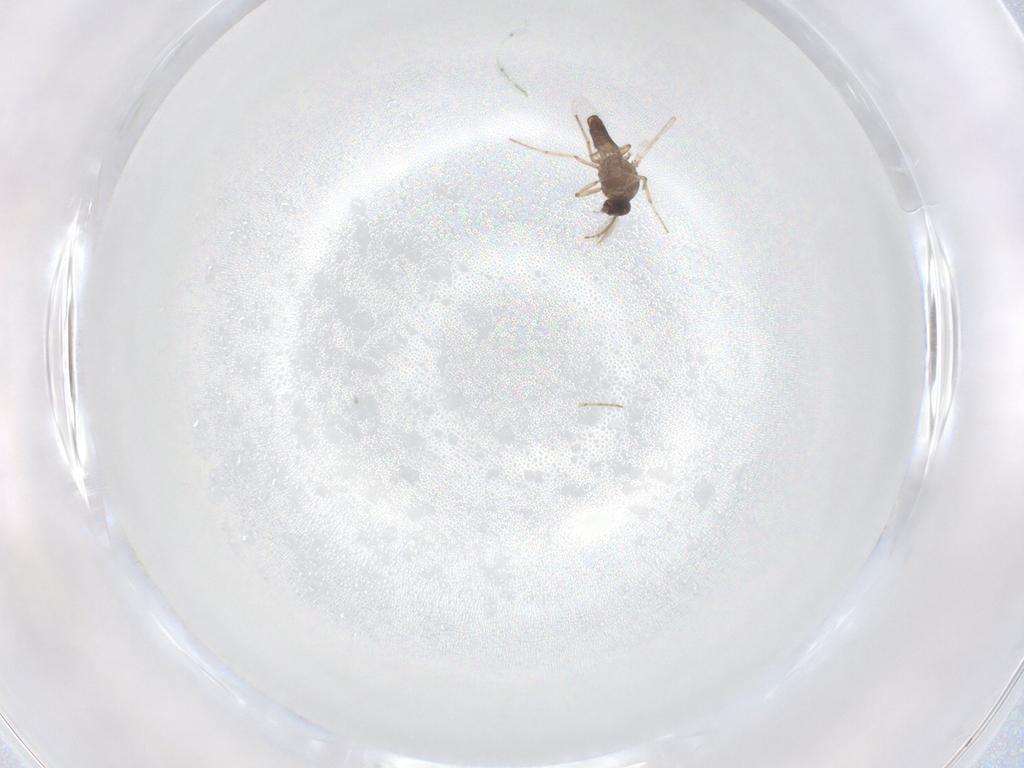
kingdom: Animalia
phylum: Arthropoda
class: Insecta
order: Diptera
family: Ceratopogonidae
